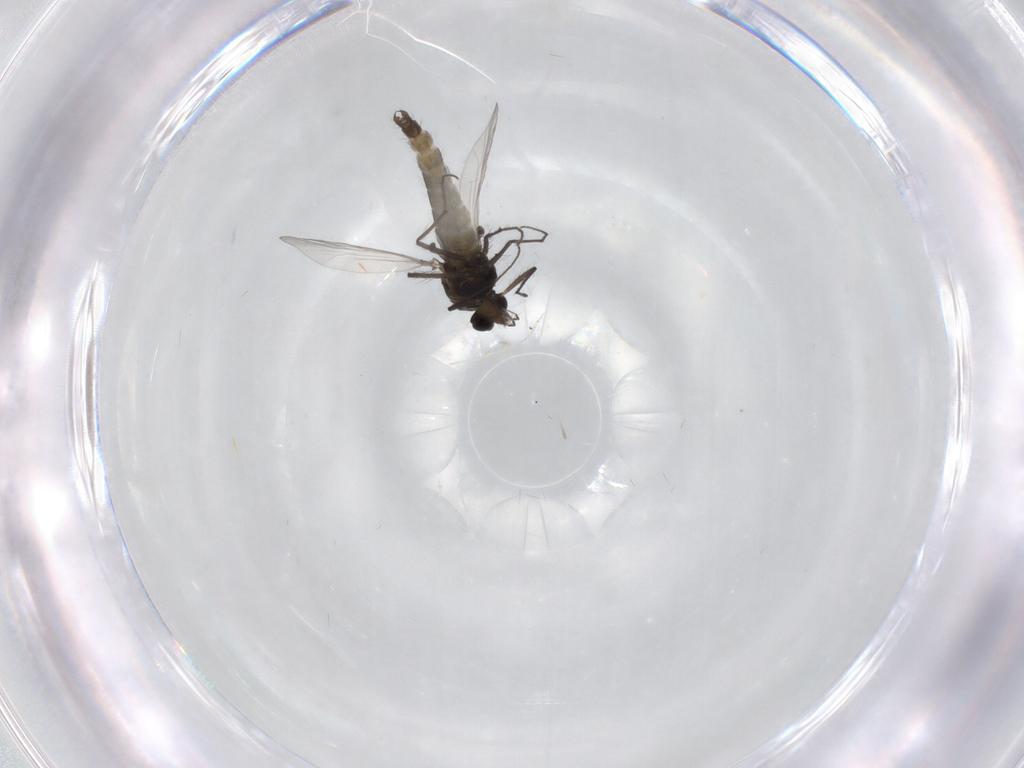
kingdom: Animalia
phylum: Arthropoda
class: Insecta
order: Diptera
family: Chironomidae
